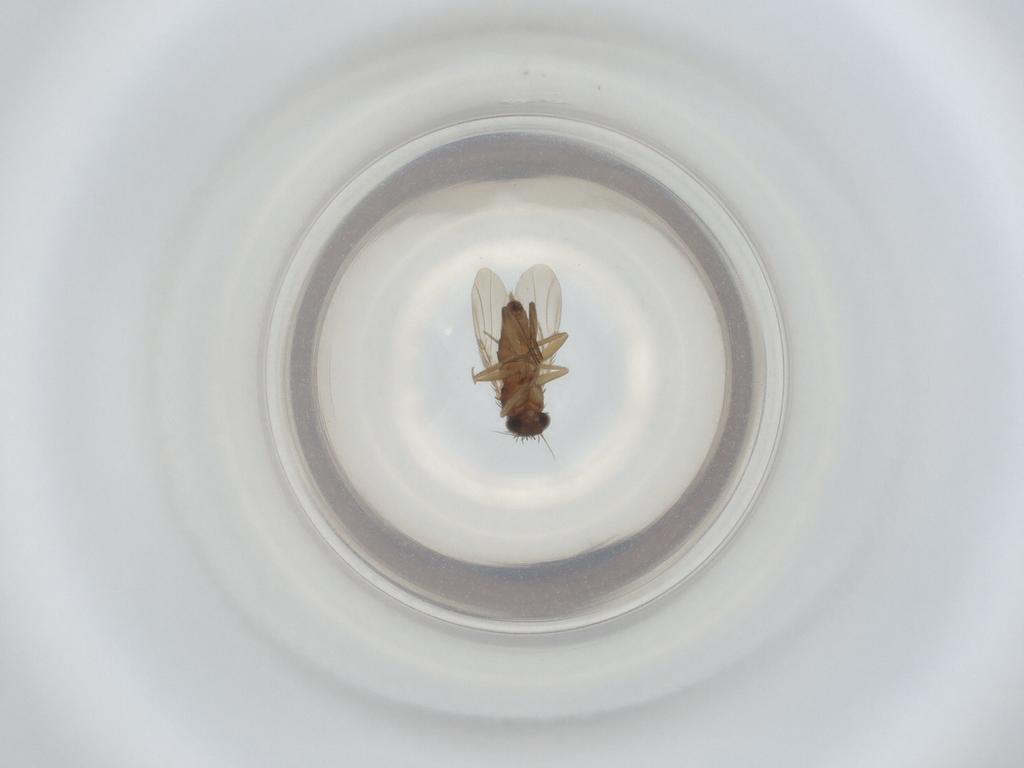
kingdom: Animalia
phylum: Arthropoda
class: Insecta
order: Diptera
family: Phoridae
